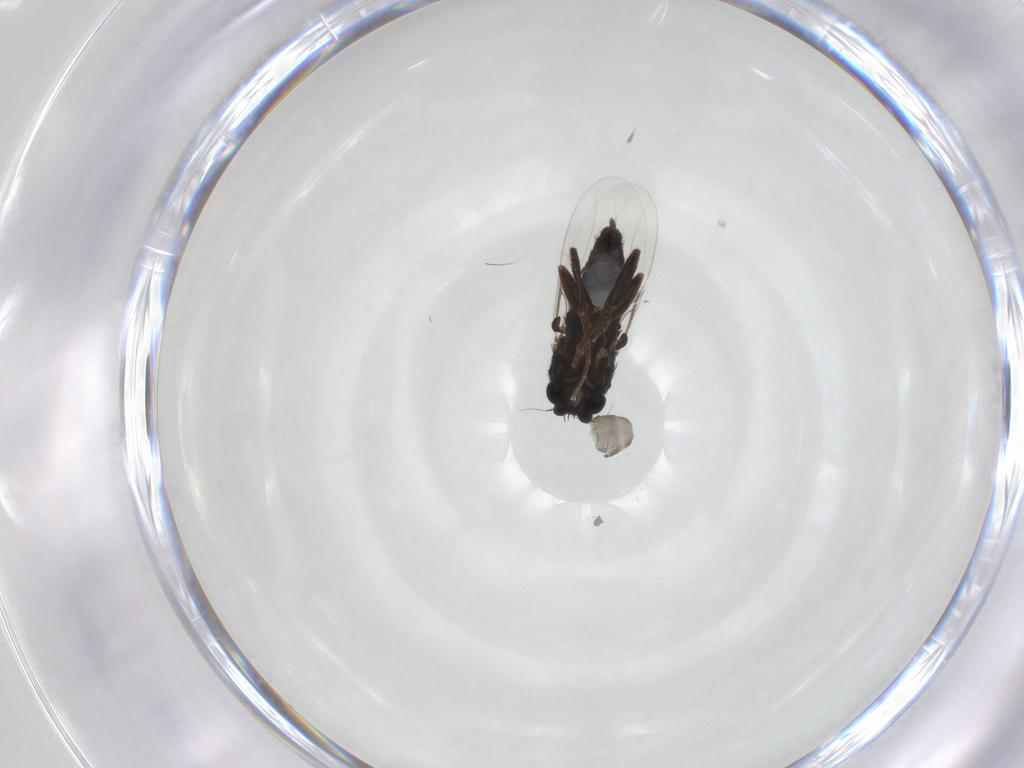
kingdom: Animalia
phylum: Arthropoda
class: Insecta
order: Diptera
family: Phoridae
